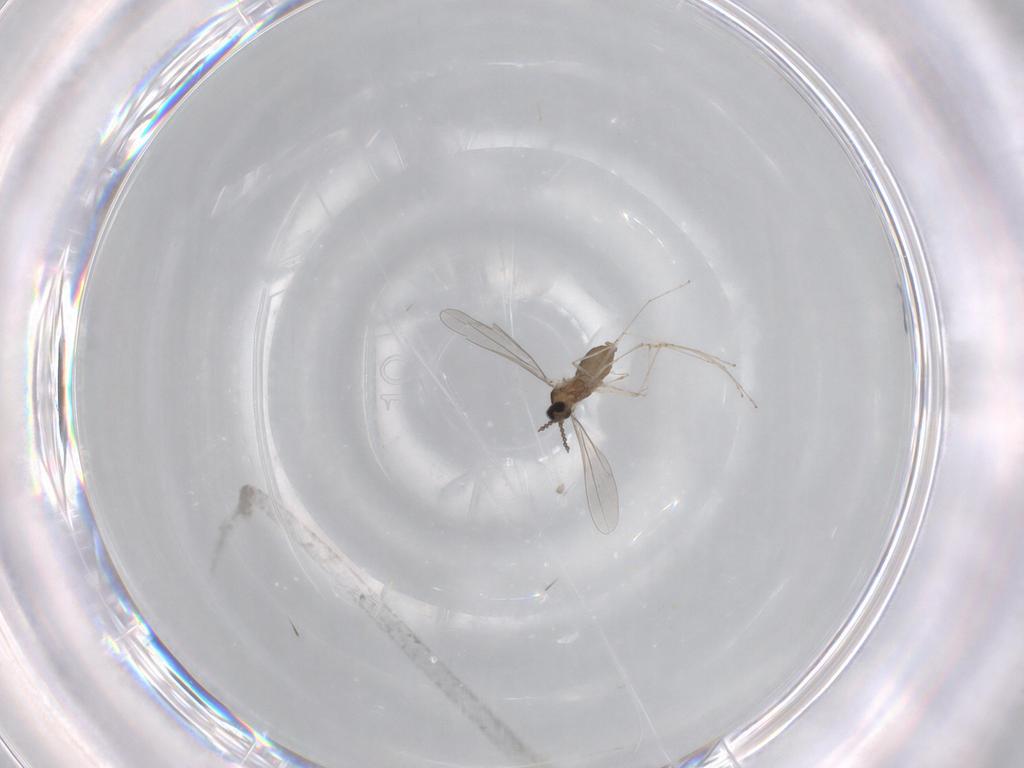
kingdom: Animalia
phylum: Arthropoda
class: Insecta
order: Diptera
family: Cecidomyiidae
